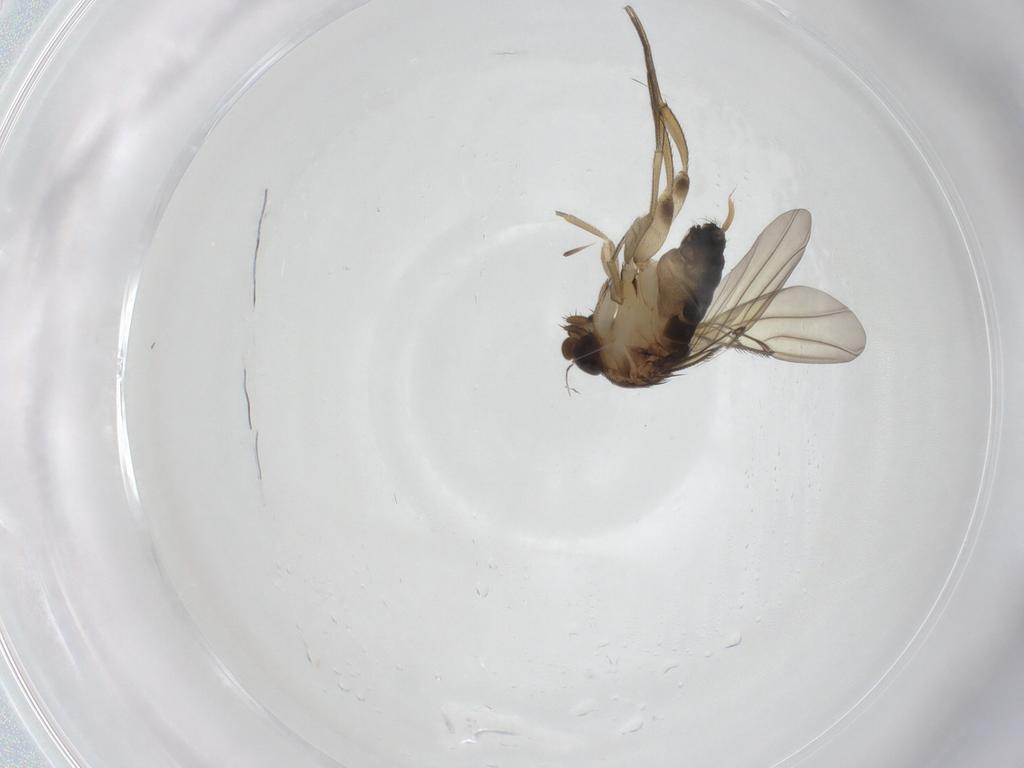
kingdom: Animalia
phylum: Arthropoda
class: Insecta
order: Diptera
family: Phoridae
